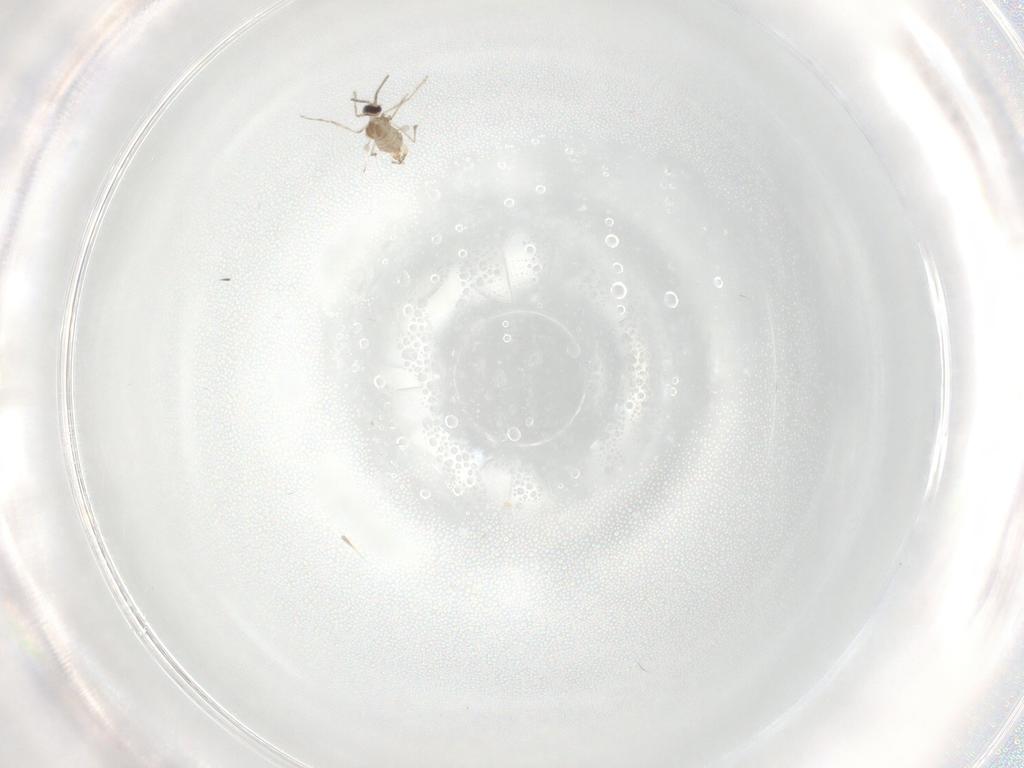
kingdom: Animalia
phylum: Arthropoda
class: Insecta
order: Diptera
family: Cecidomyiidae
